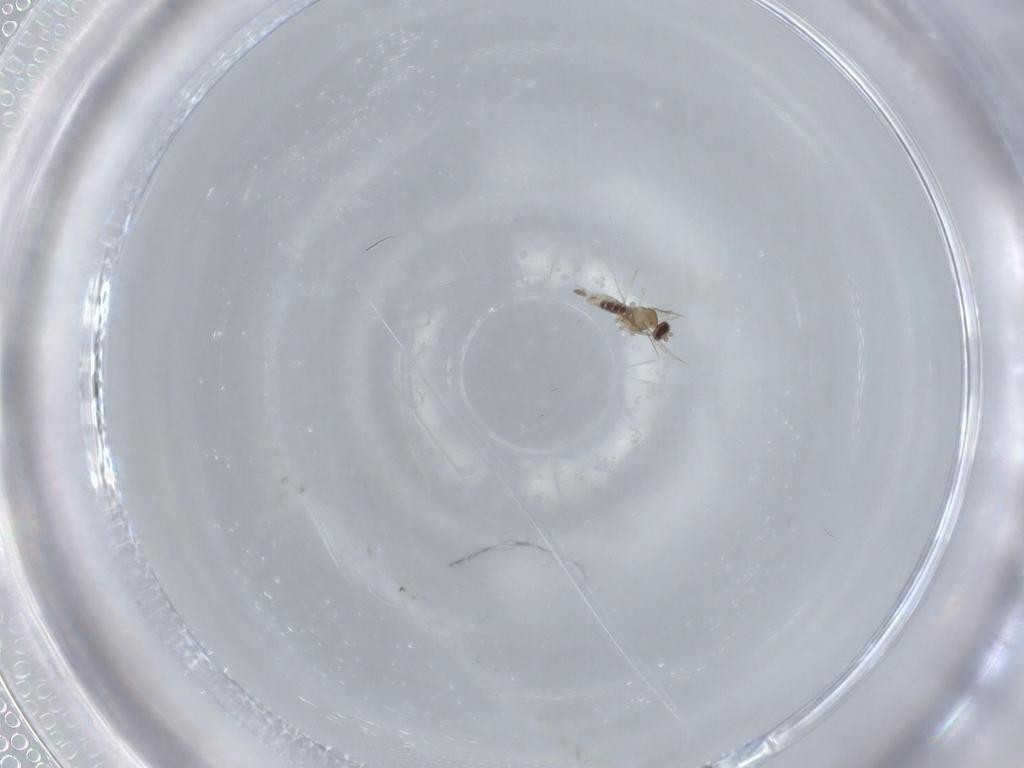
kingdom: Animalia
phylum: Arthropoda
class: Insecta
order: Diptera
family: Cecidomyiidae
